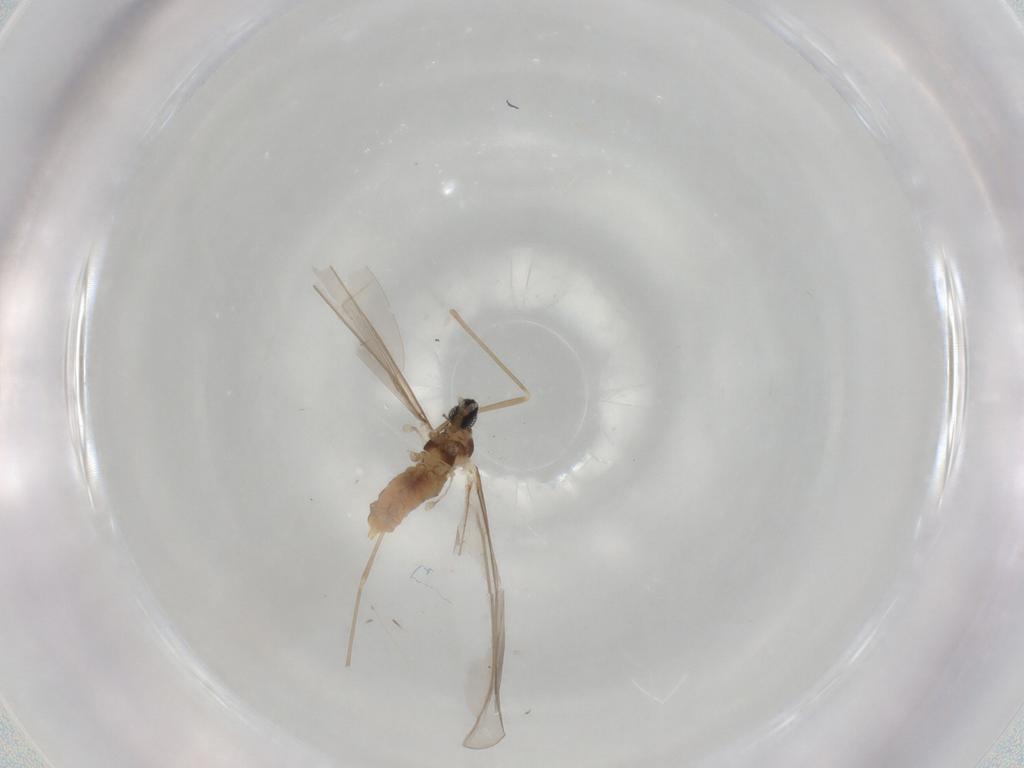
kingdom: Animalia
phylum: Arthropoda
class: Insecta
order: Diptera
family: Cecidomyiidae
